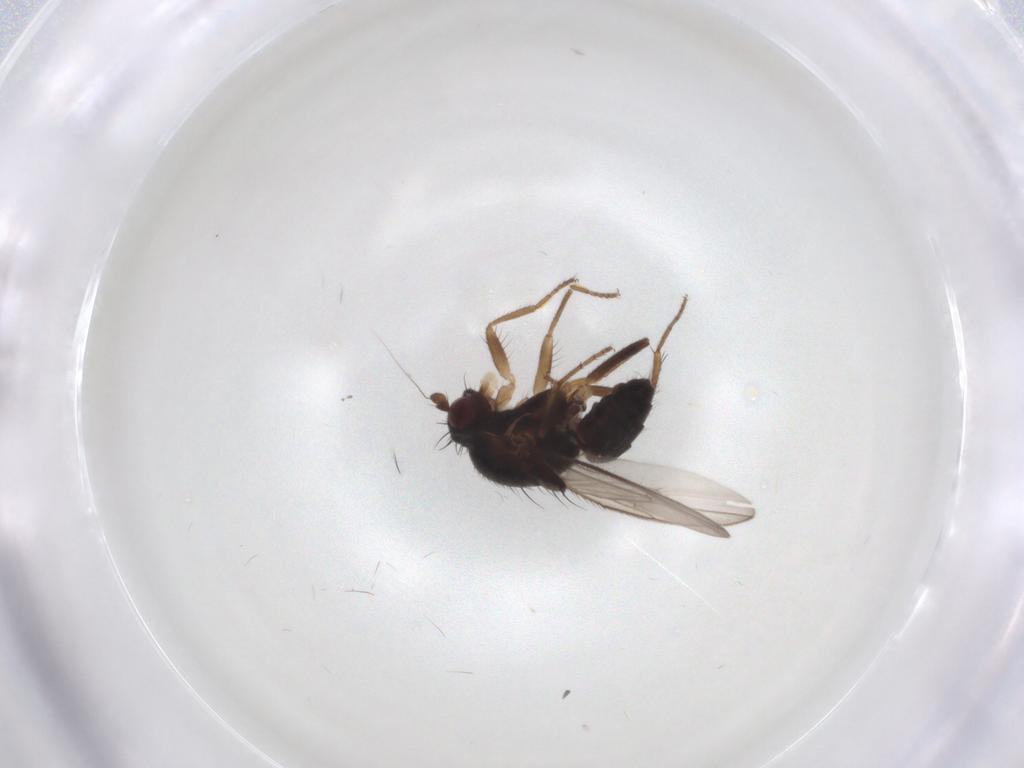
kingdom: Animalia
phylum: Arthropoda
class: Insecta
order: Diptera
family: Sphaeroceridae
